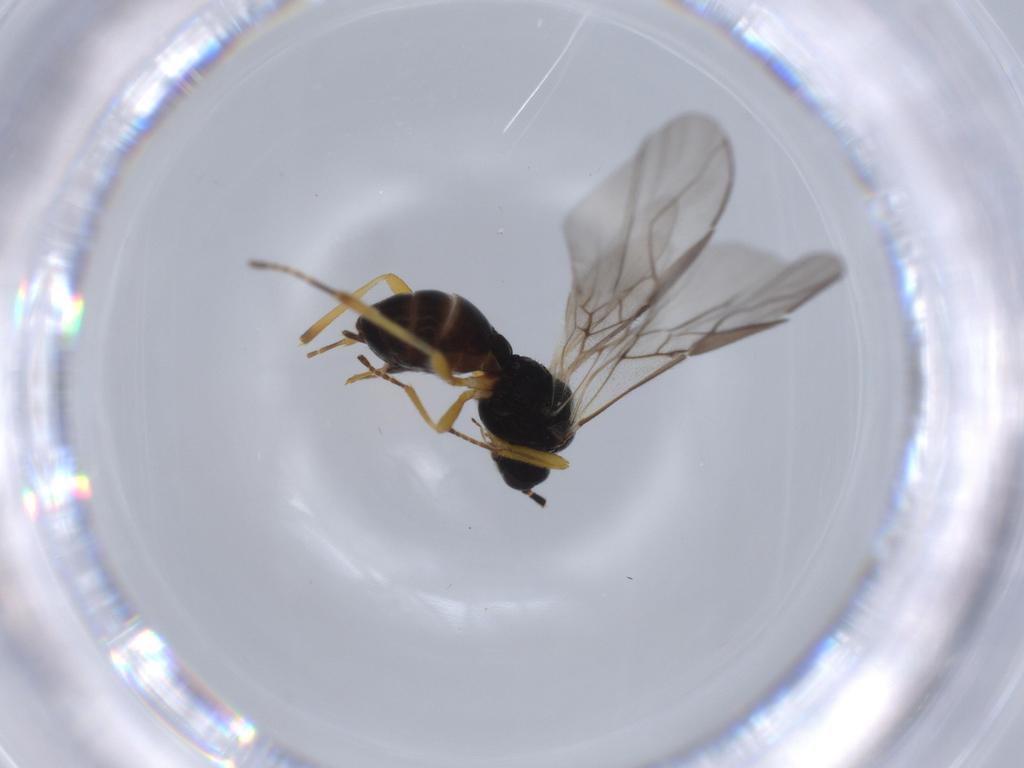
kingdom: Animalia
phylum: Arthropoda
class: Insecta
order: Hymenoptera
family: Braconidae
